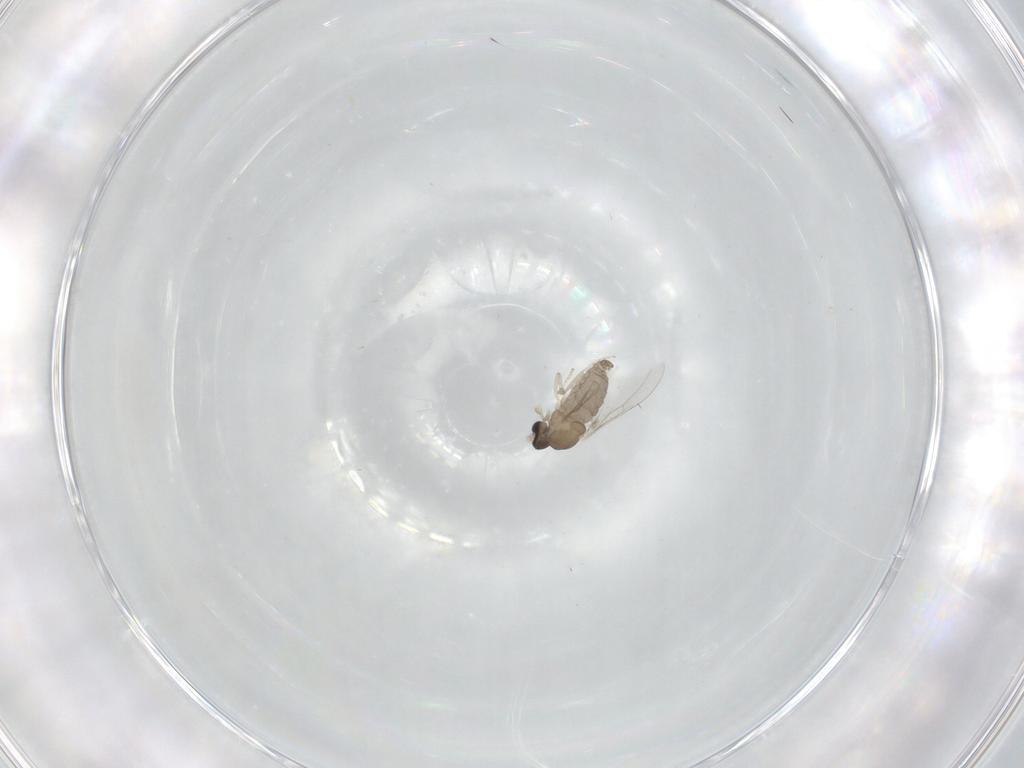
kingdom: Animalia
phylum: Arthropoda
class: Insecta
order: Diptera
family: Cecidomyiidae
